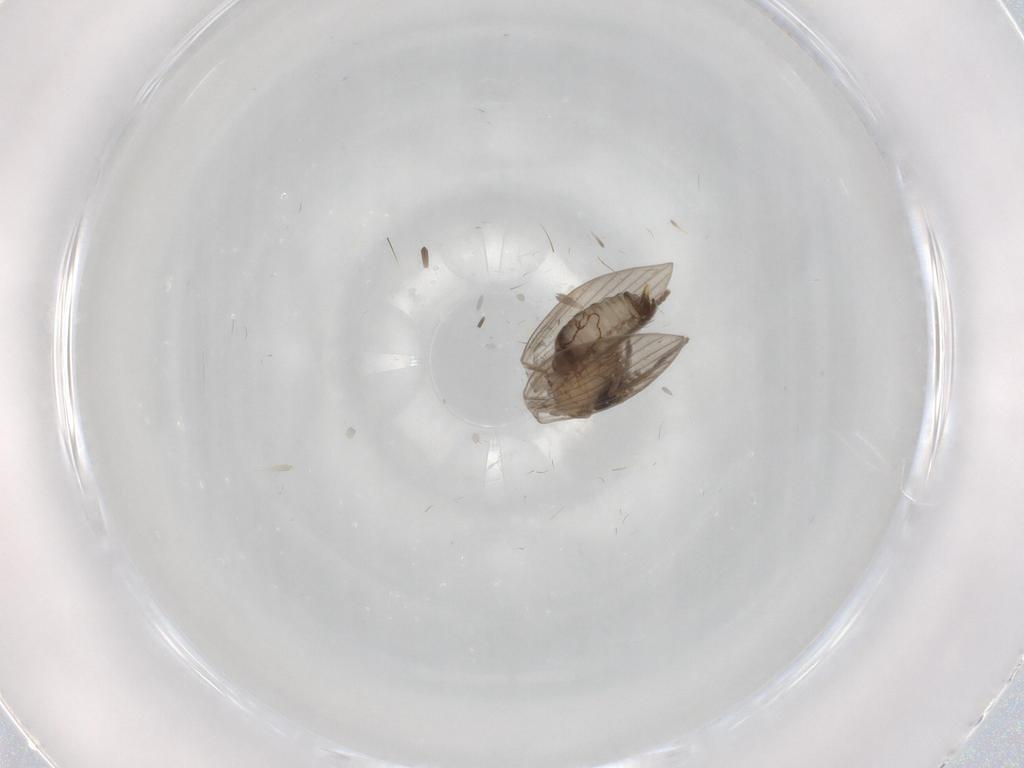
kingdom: Animalia
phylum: Arthropoda
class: Insecta
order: Diptera
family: Psychodidae
